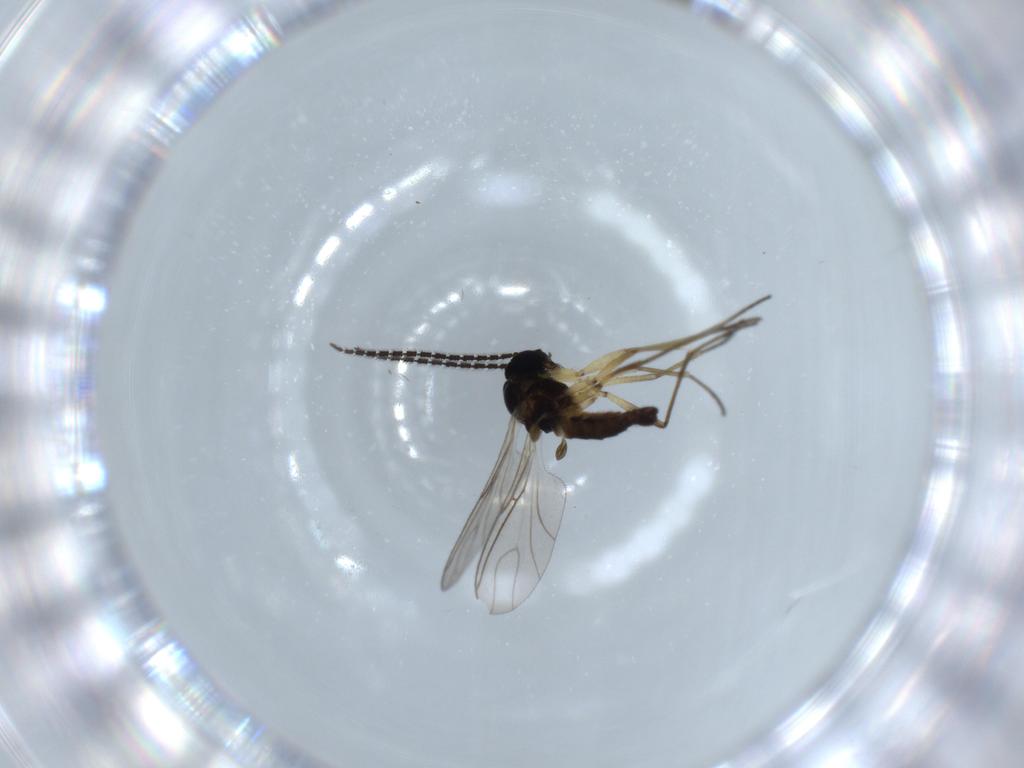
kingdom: Animalia
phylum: Arthropoda
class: Insecta
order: Diptera
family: Sciaridae
